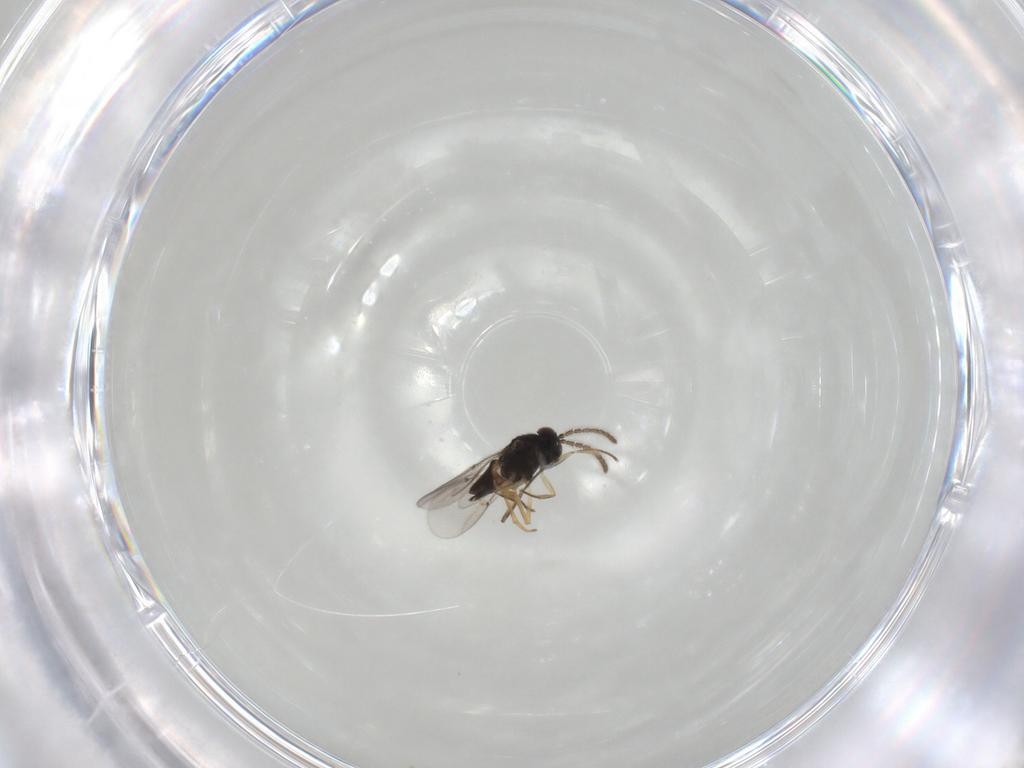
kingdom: Animalia
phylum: Arthropoda
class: Insecta
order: Hymenoptera
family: Encyrtidae
